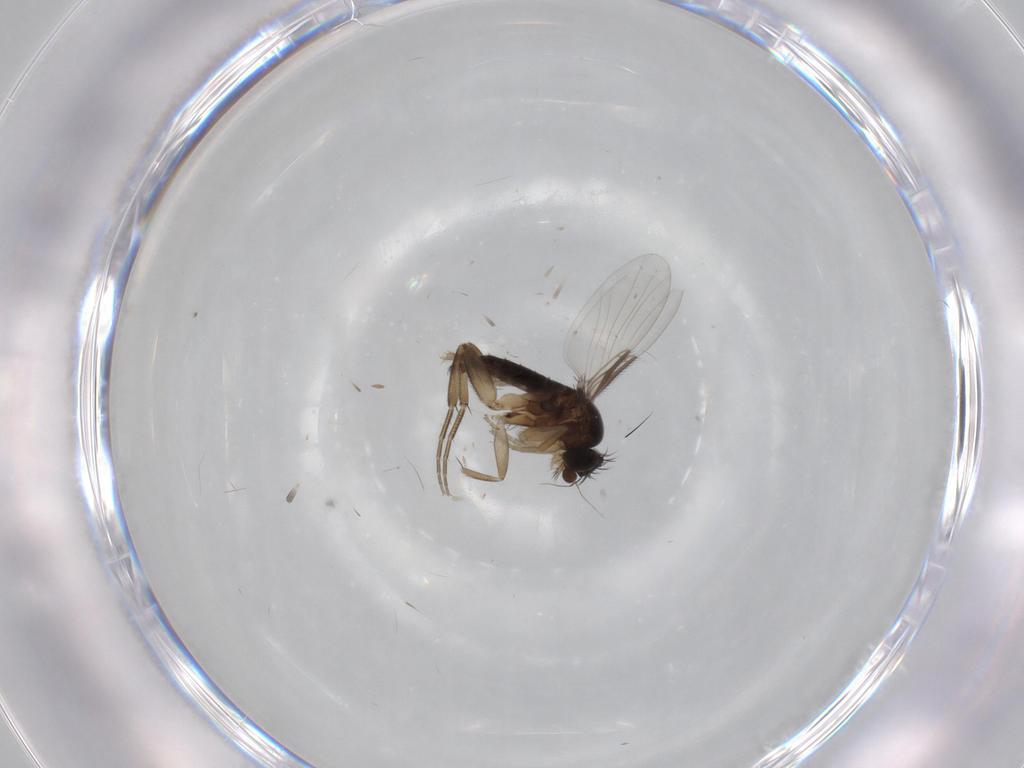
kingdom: Animalia
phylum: Arthropoda
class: Insecta
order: Diptera
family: Phoridae
